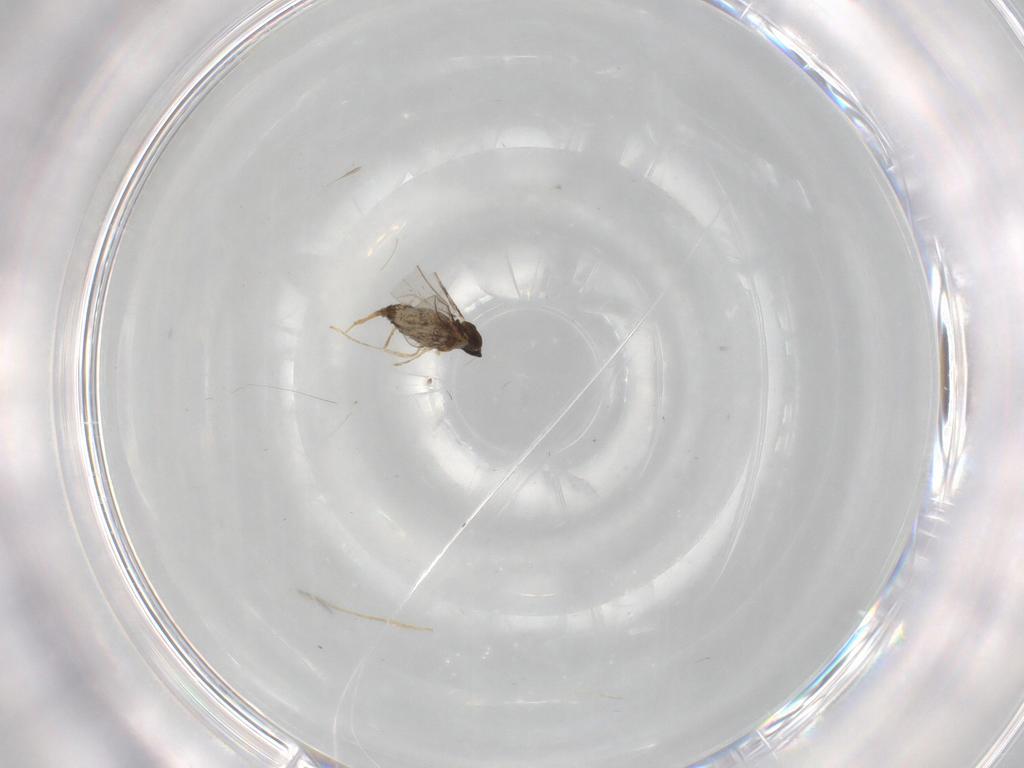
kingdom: Animalia
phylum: Arthropoda
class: Insecta
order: Diptera
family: Cecidomyiidae
